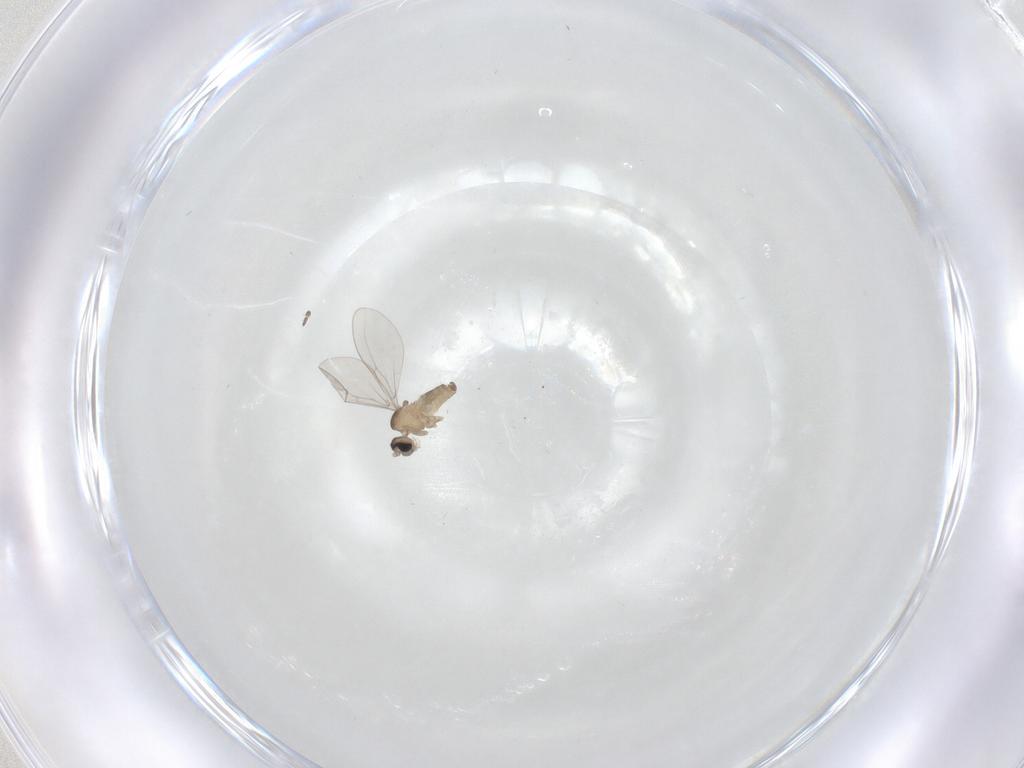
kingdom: Animalia
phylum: Arthropoda
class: Insecta
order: Diptera
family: Cecidomyiidae
